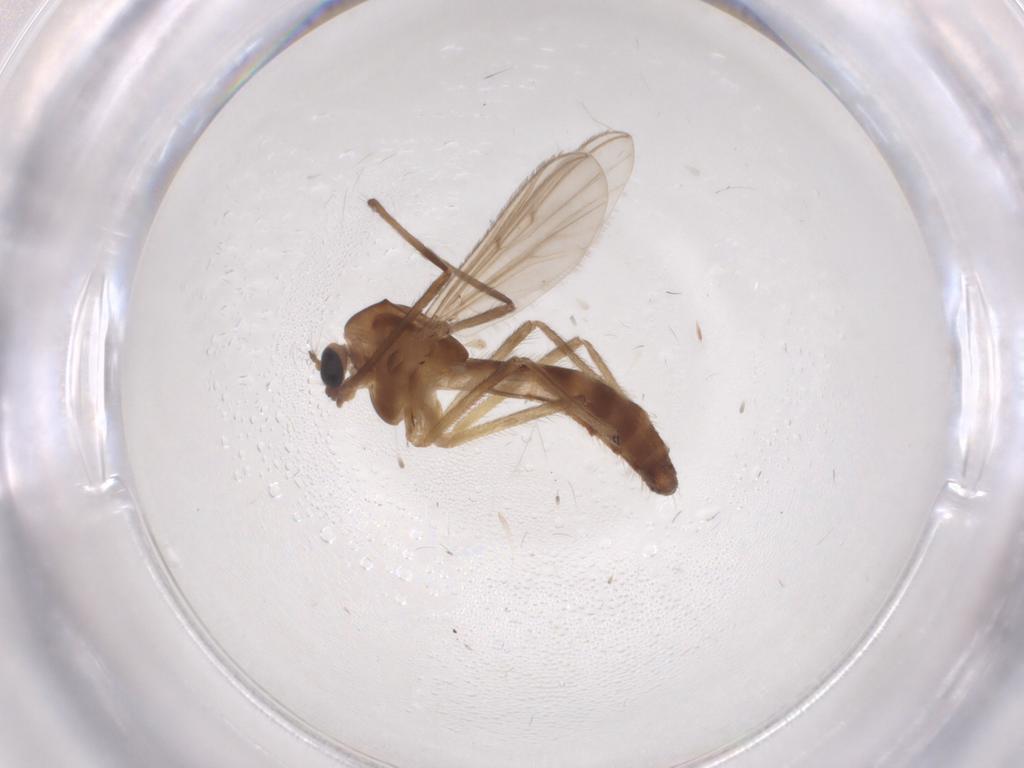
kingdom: Animalia
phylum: Arthropoda
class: Insecta
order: Diptera
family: Chironomidae
